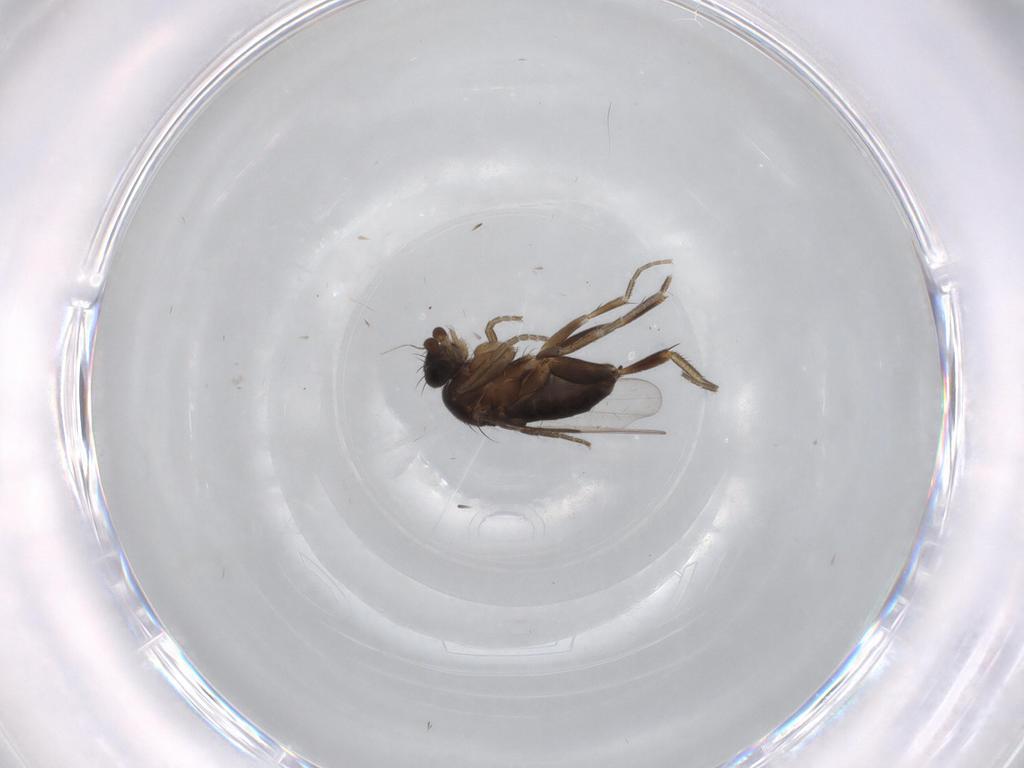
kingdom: Animalia
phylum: Arthropoda
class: Insecta
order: Diptera
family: Phoridae
